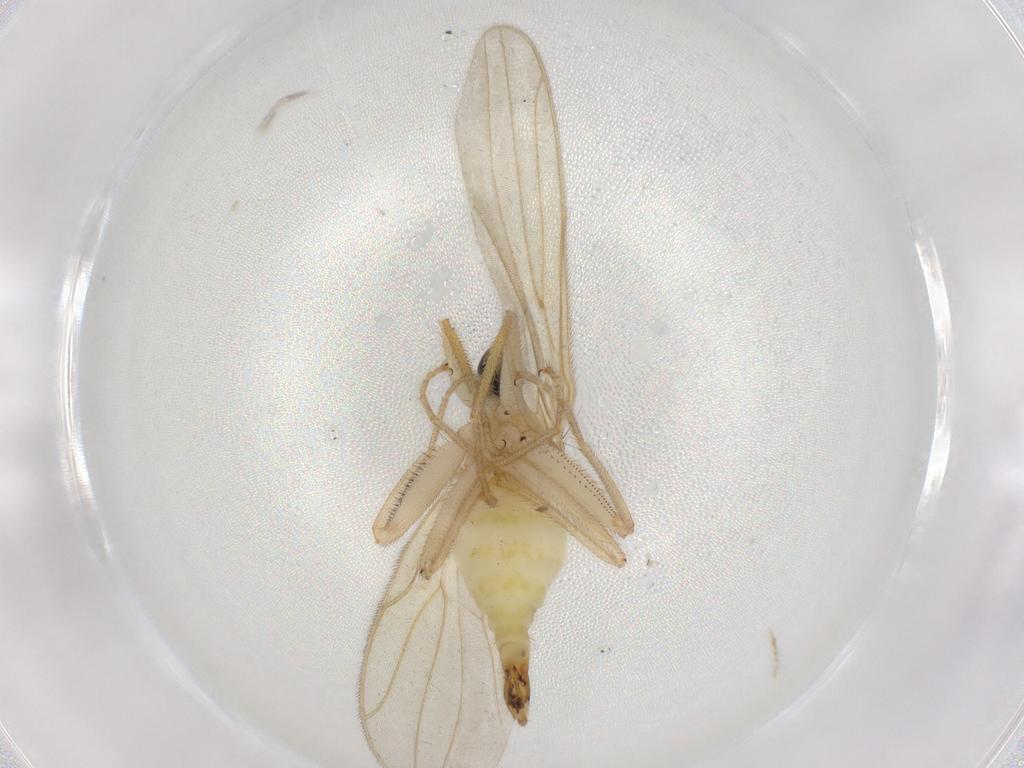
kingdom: Animalia
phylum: Arthropoda
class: Insecta
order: Diptera
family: Hybotidae
